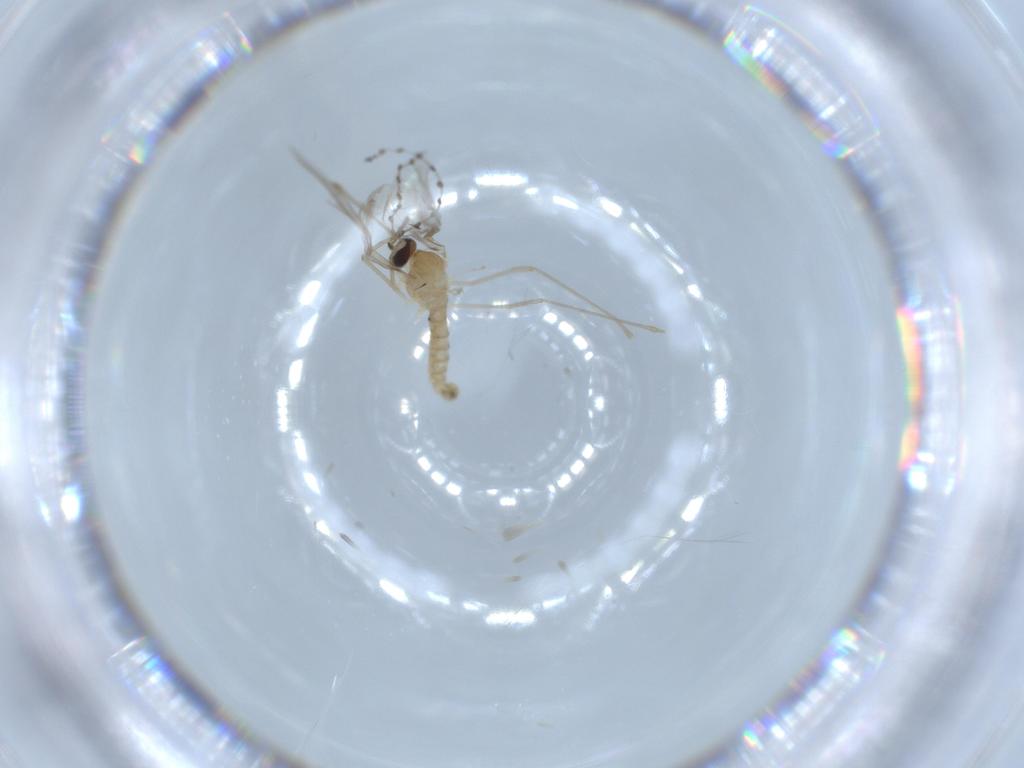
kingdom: Animalia
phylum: Arthropoda
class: Insecta
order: Diptera
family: Cecidomyiidae
